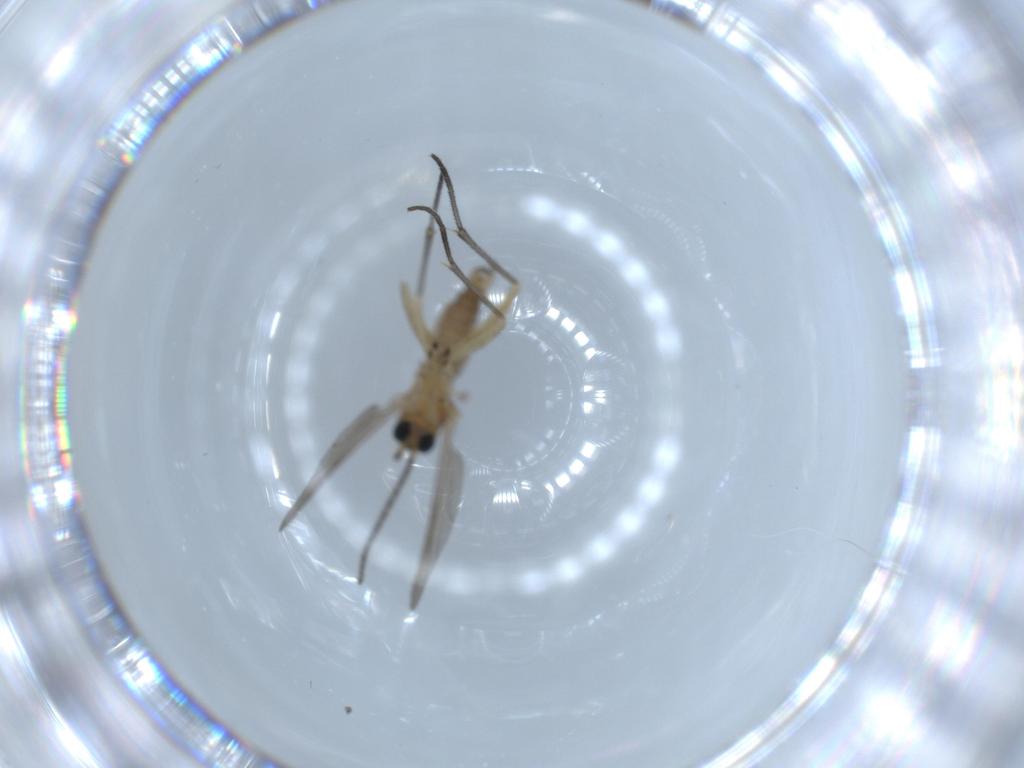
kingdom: Animalia
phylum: Arthropoda
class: Insecta
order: Diptera
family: Sciaridae
